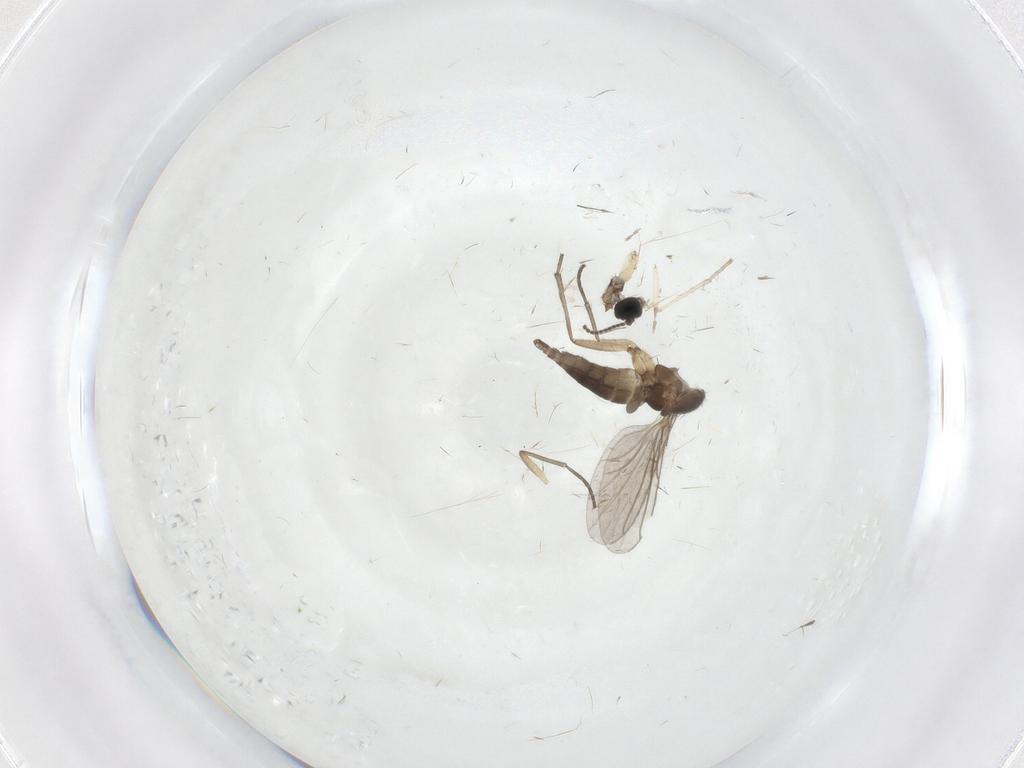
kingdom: Animalia
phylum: Arthropoda
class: Insecta
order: Diptera
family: Sciaridae
